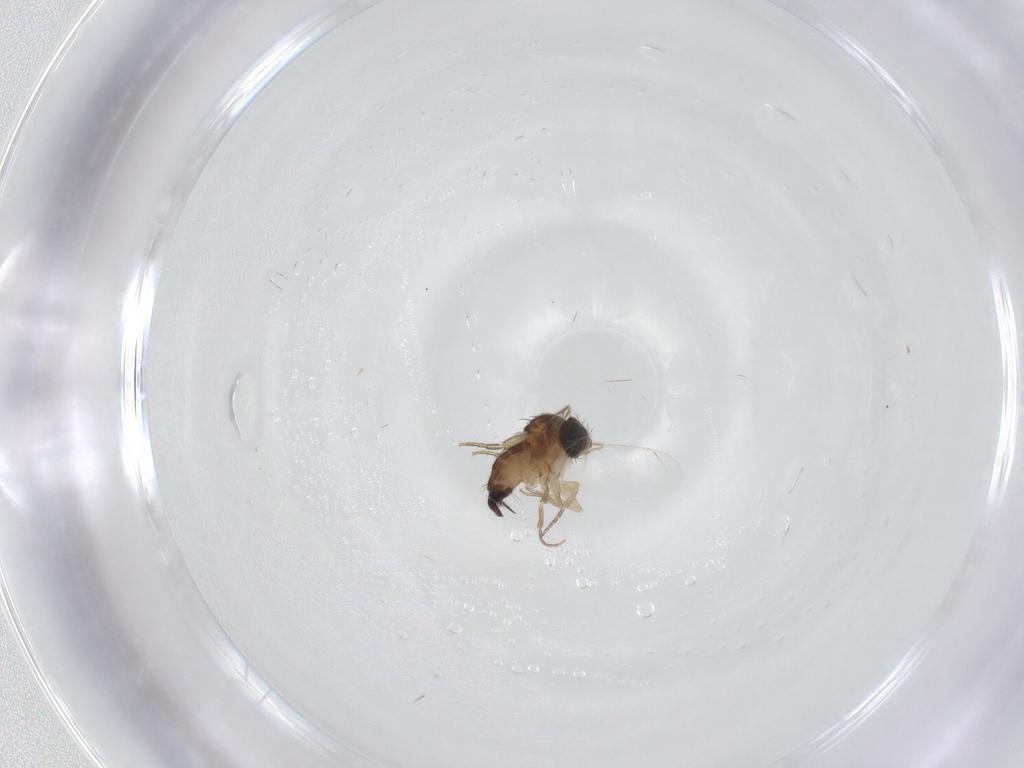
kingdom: Animalia
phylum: Arthropoda
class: Insecta
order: Diptera
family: Phoridae
